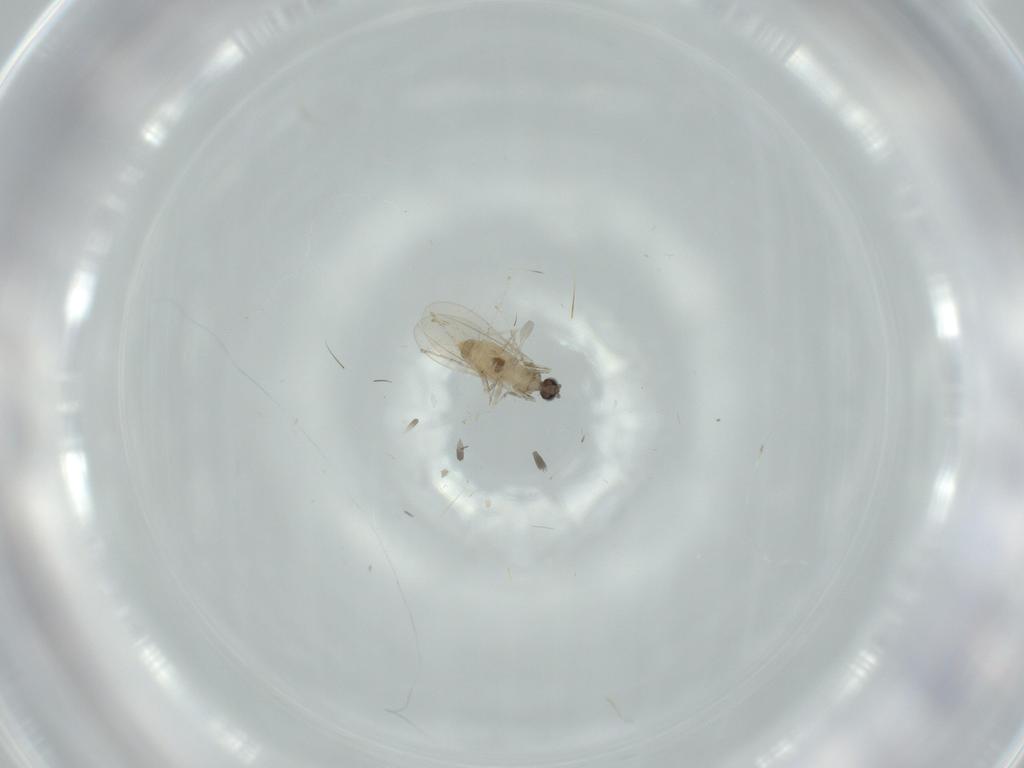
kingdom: Animalia
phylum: Arthropoda
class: Insecta
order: Diptera
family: Cecidomyiidae
